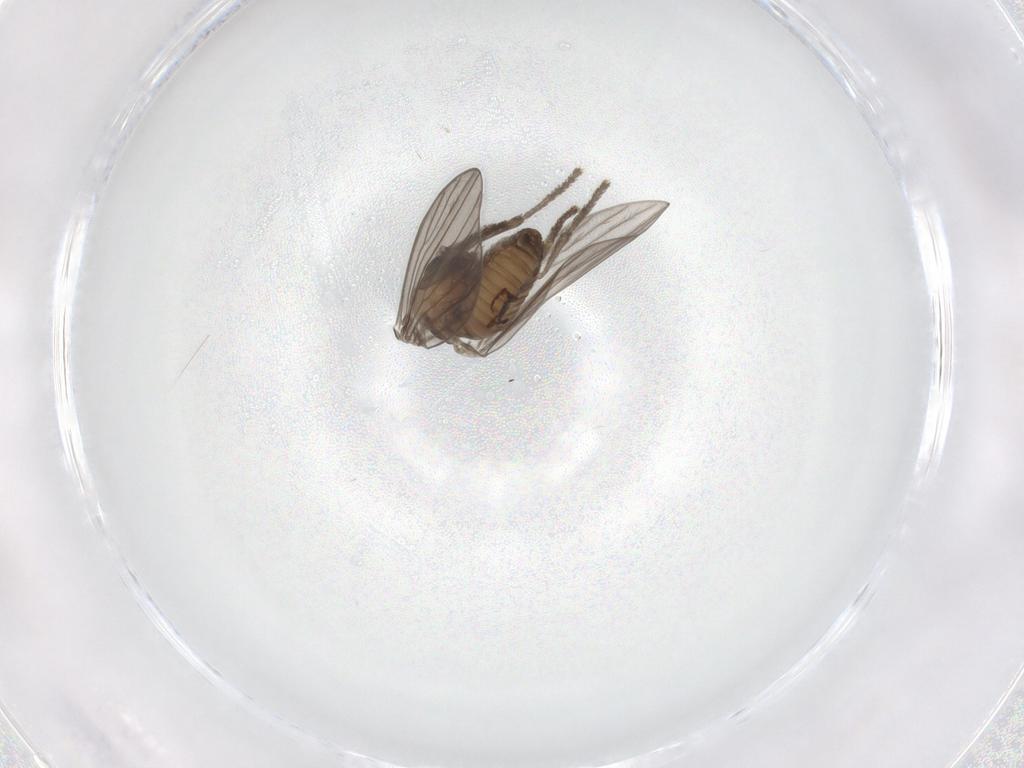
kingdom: Animalia
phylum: Arthropoda
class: Insecta
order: Diptera
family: Psychodidae
